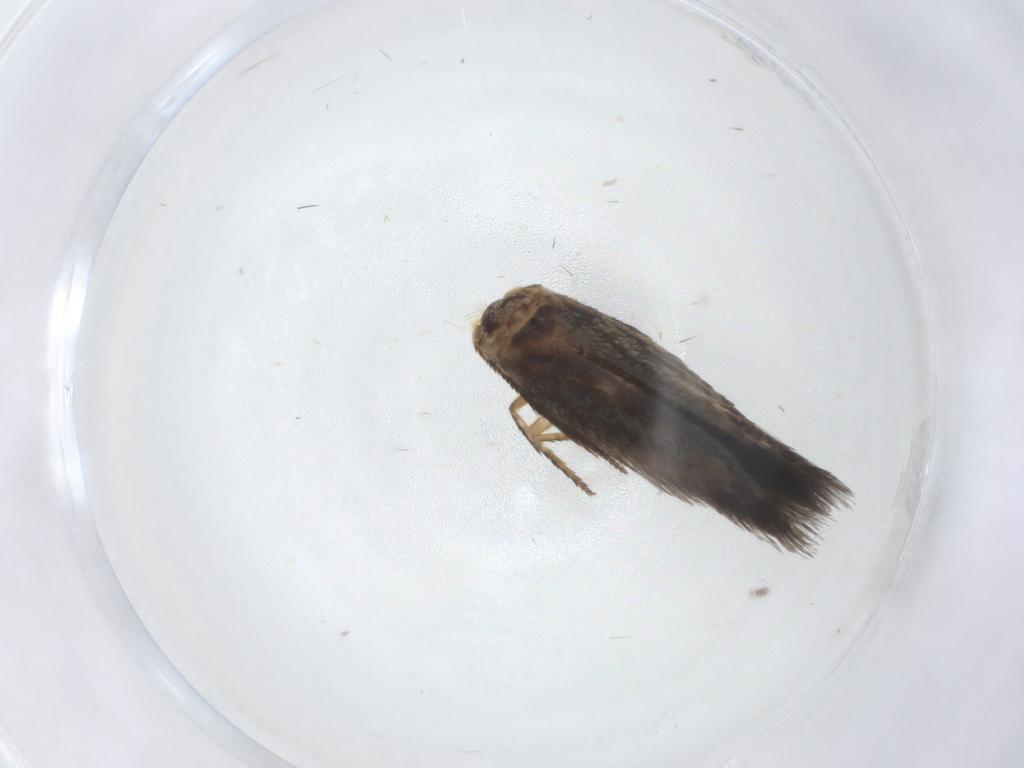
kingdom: Animalia
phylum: Arthropoda
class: Insecta
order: Lepidoptera
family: Nepticulidae
